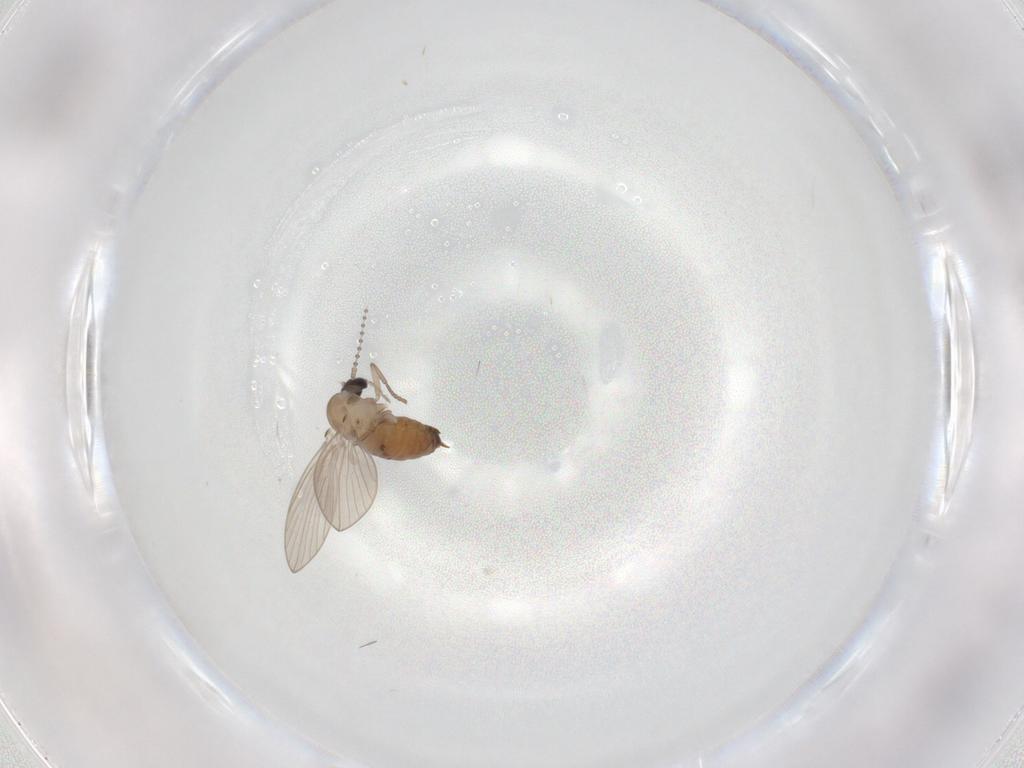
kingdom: Animalia
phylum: Arthropoda
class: Insecta
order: Diptera
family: Psychodidae
